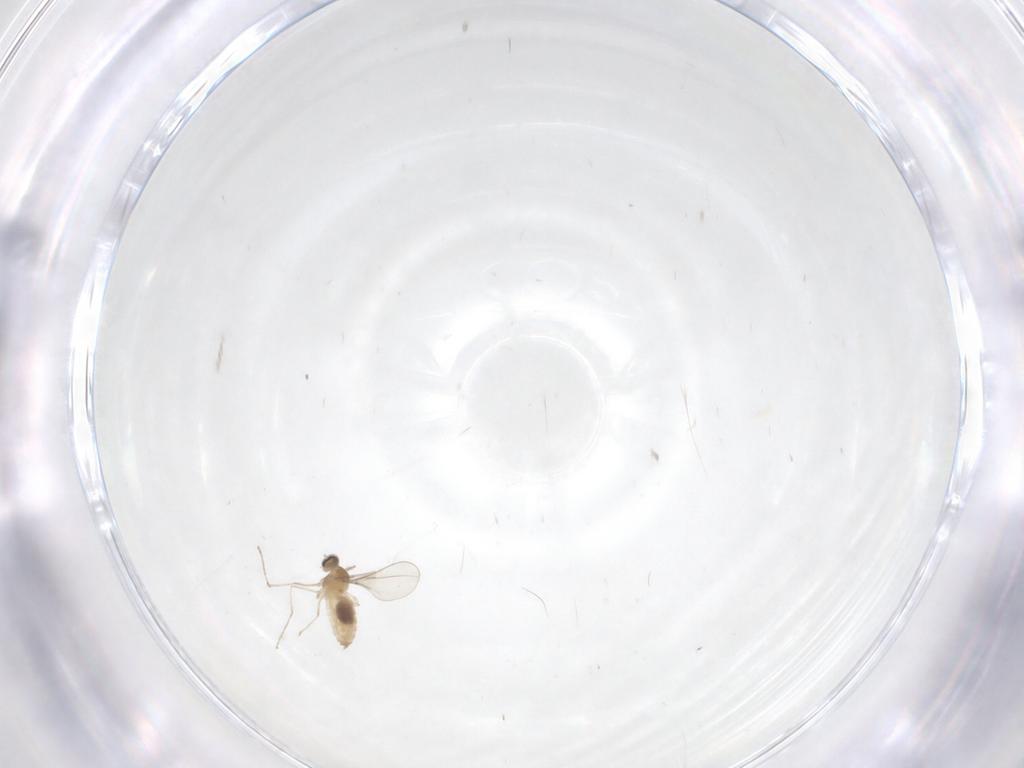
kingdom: Animalia
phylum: Arthropoda
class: Insecta
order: Diptera
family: Cecidomyiidae
